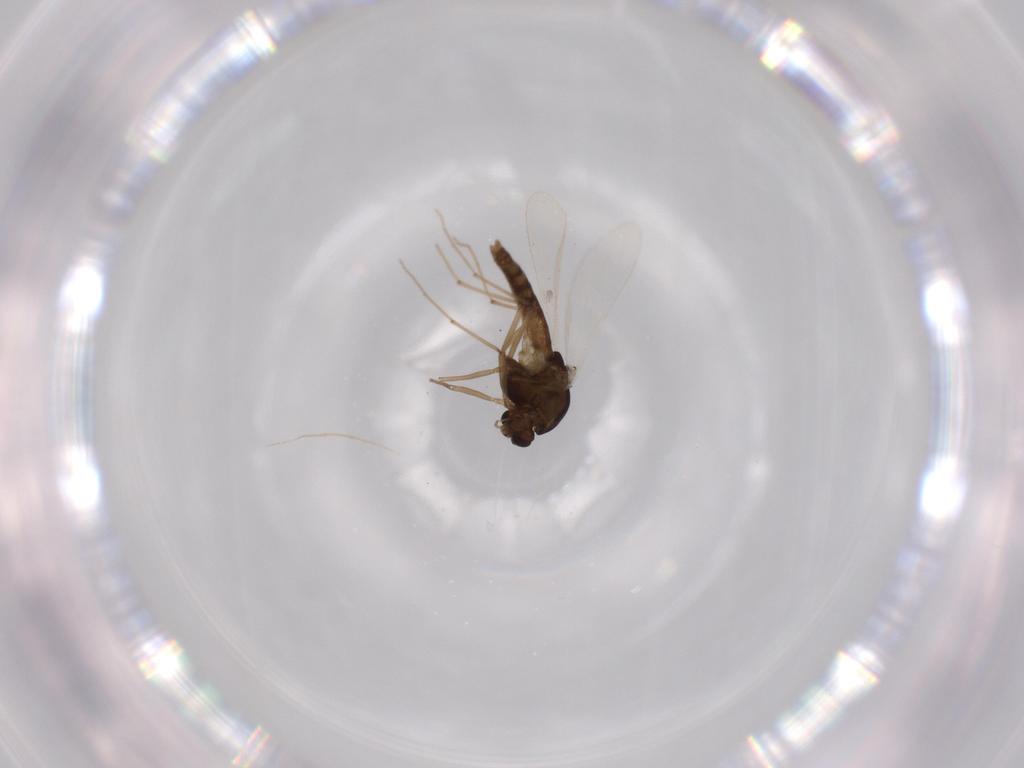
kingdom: Animalia
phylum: Arthropoda
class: Insecta
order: Diptera
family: Chironomidae
